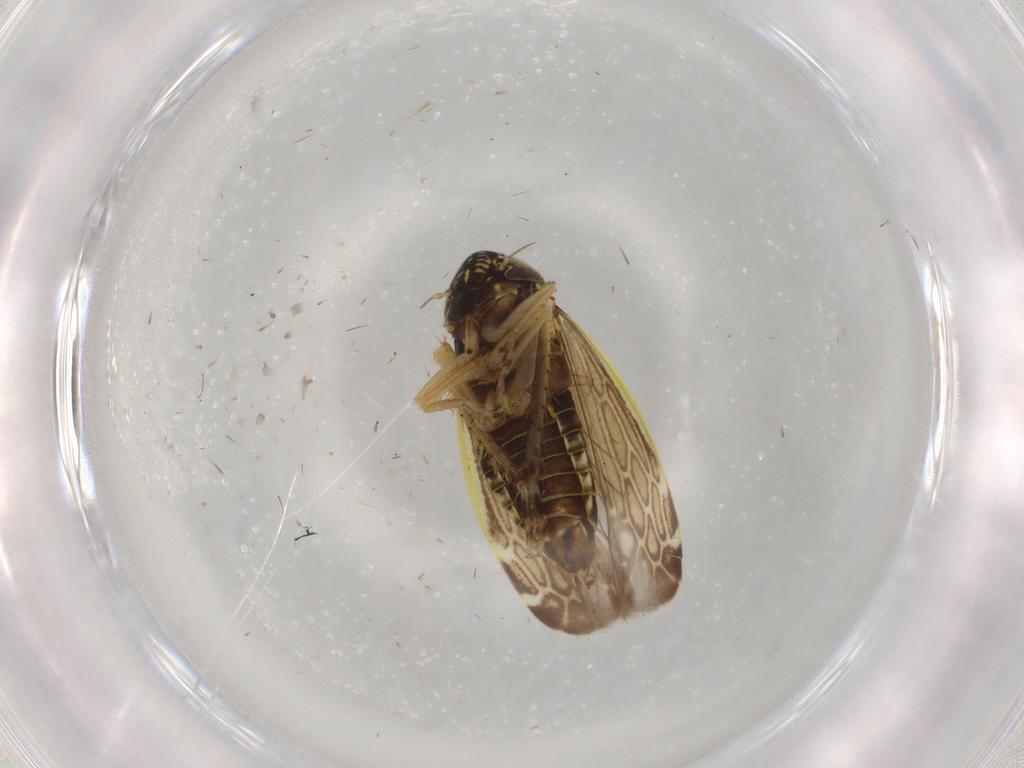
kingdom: Animalia
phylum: Arthropoda
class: Insecta
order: Hemiptera
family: Cicadellidae
